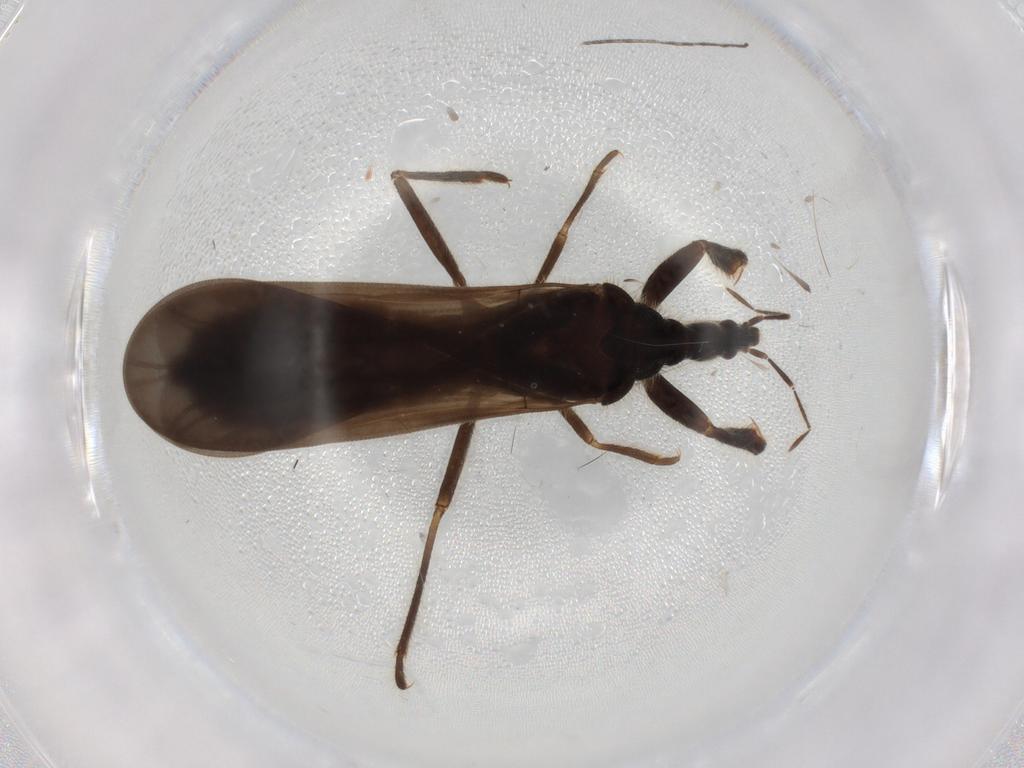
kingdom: Animalia
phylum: Arthropoda
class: Insecta
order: Hemiptera
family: Enicocephalidae
